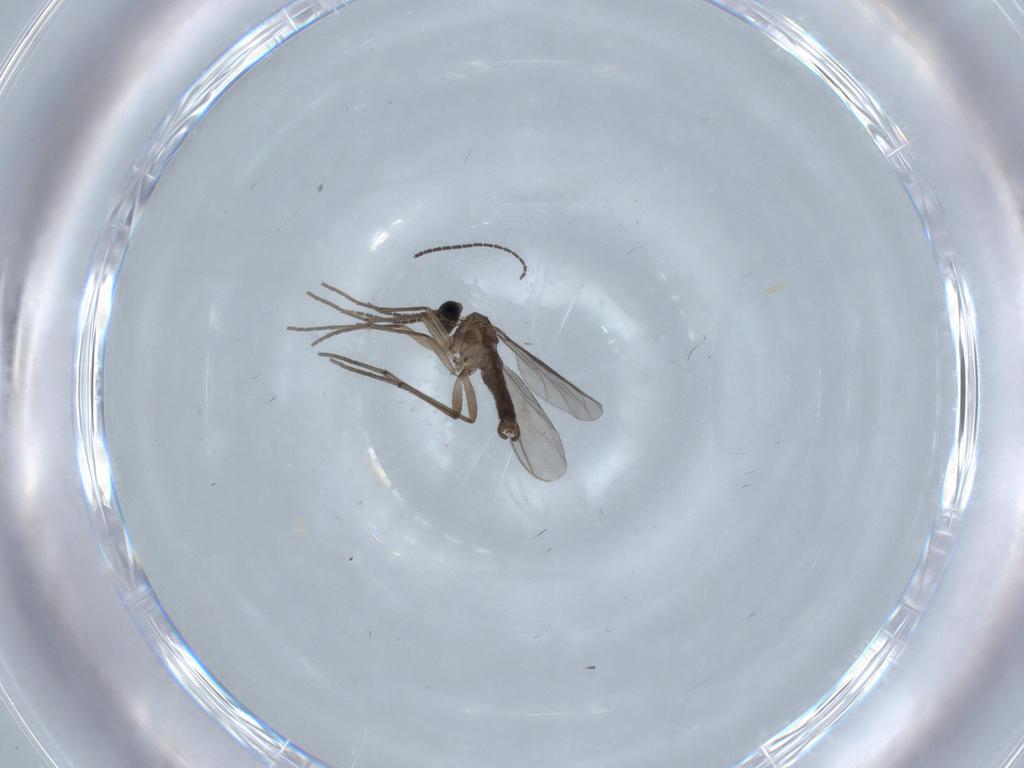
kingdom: Animalia
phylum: Arthropoda
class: Insecta
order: Diptera
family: Sciaridae
